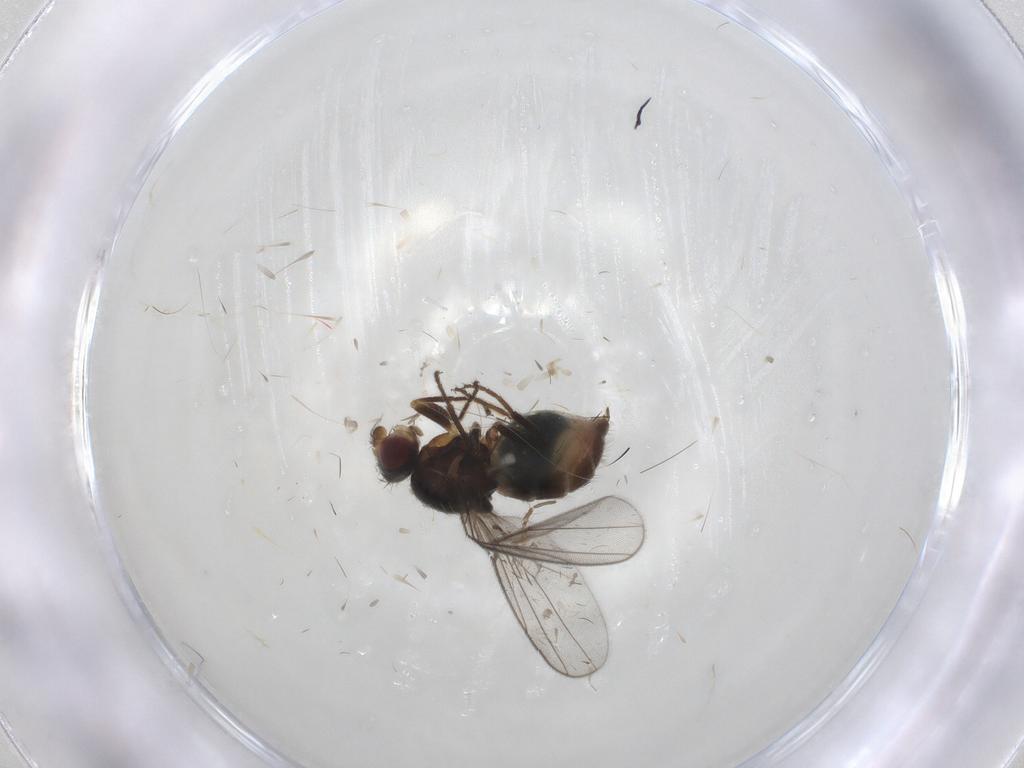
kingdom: Animalia
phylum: Arthropoda
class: Insecta
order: Diptera
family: Chloropidae
